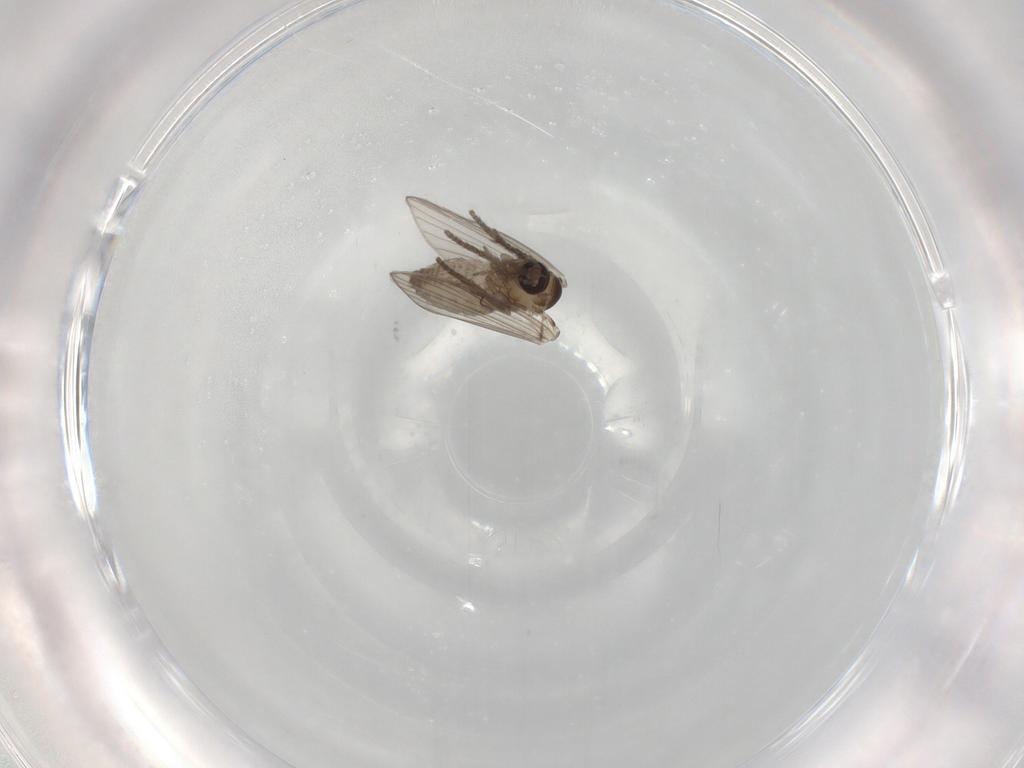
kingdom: Animalia
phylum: Arthropoda
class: Insecta
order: Diptera
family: Psychodidae
